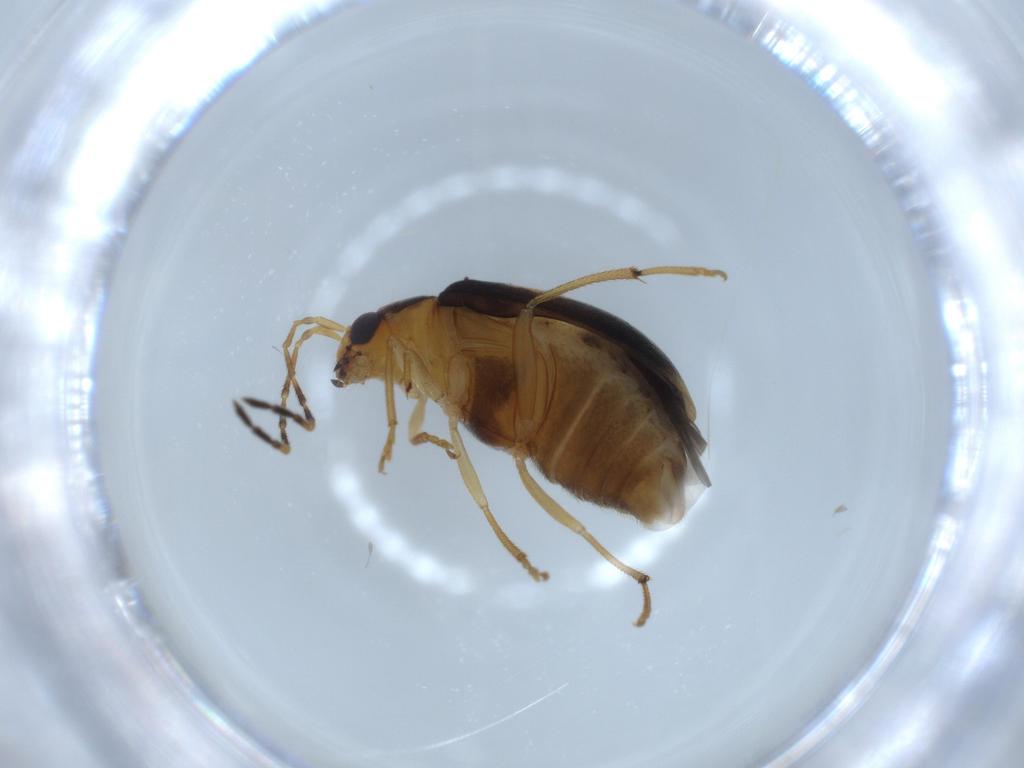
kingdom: Animalia
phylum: Arthropoda
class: Insecta
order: Coleoptera
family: Chrysomelidae
